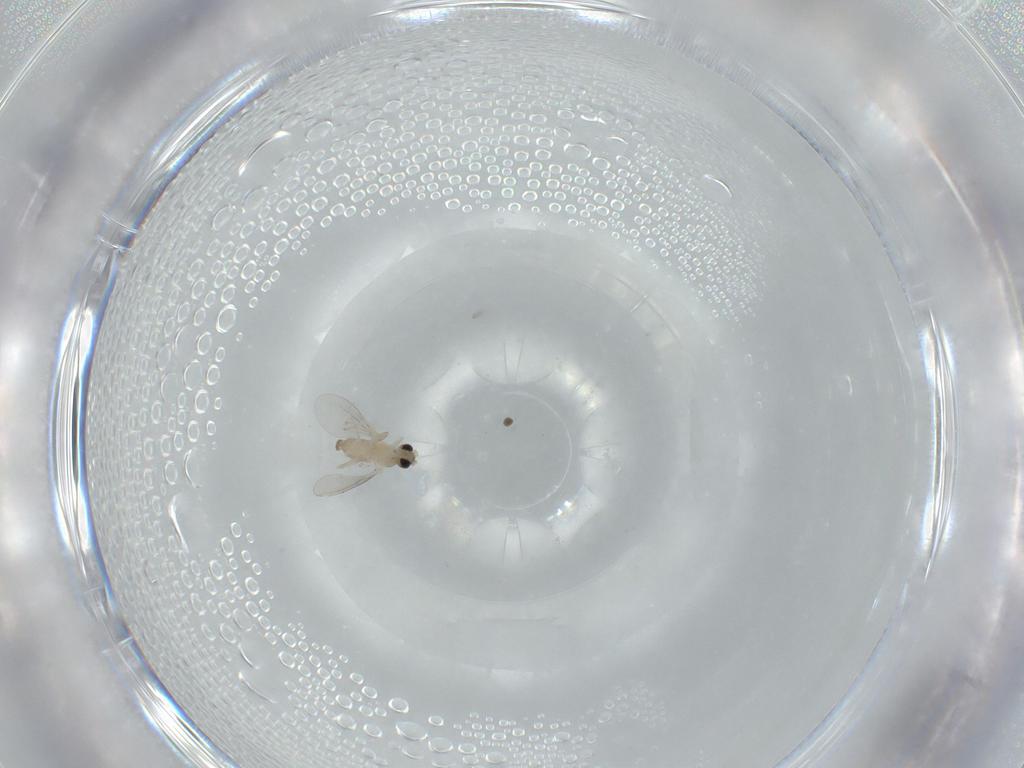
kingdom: Animalia
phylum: Arthropoda
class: Insecta
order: Diptera
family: Cecidomyiidae
